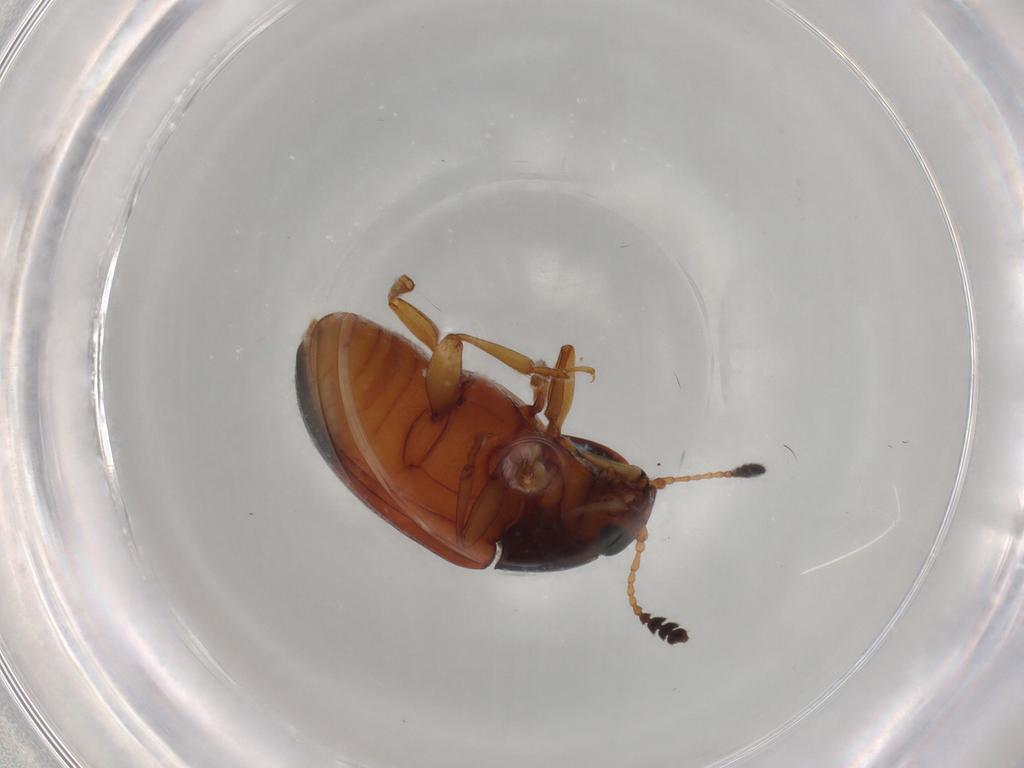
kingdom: Animalia
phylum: Arthropoda
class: Insecta
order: Coleoptera
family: Erotylidae
